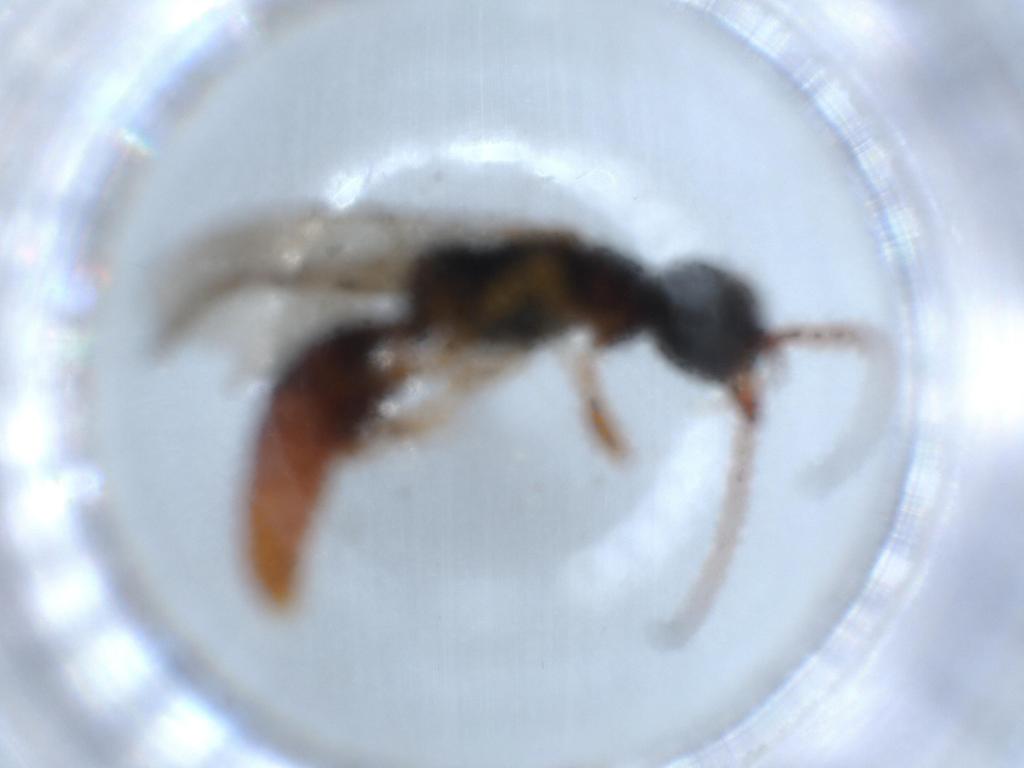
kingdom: Animalia
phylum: Arthropoda
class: Insecta
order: Hymenoptera
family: Bethylidae
